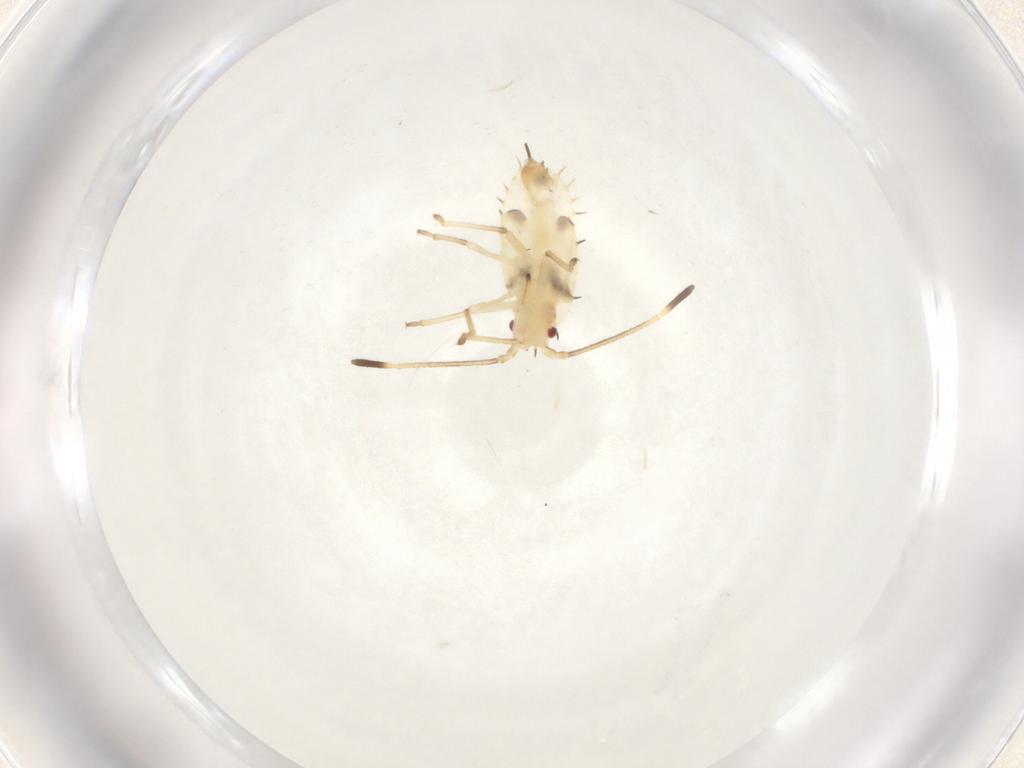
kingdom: Animalia
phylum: Arthropoda
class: Insecta
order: Hemiptera
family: Tingidae
